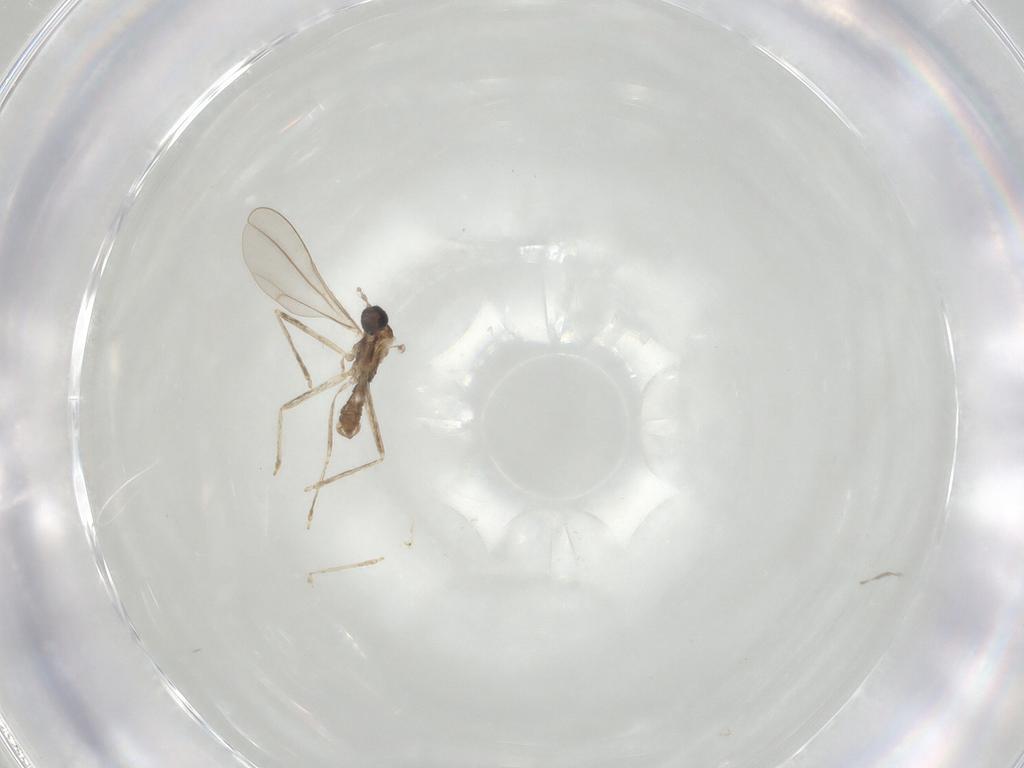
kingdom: Animalia
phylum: Arthropoda
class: Insecta
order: Diptera
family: Cecidomyiidae
